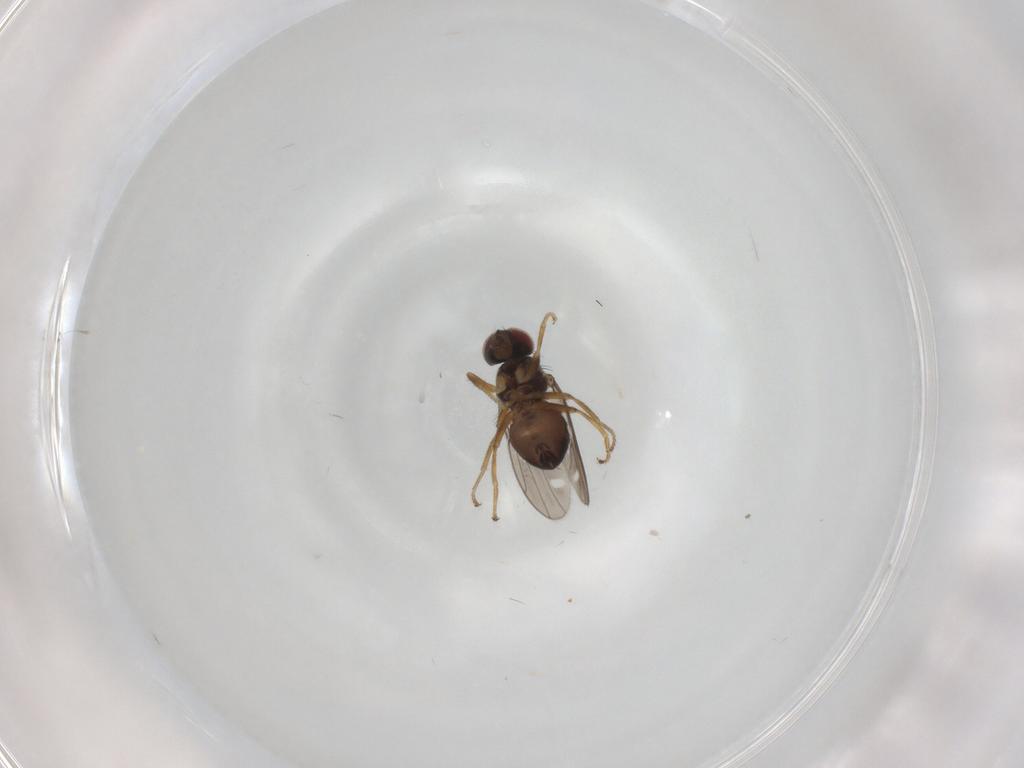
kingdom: Animalia
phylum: Arthropoda
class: Insecta
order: Diptera
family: Ephydridae
